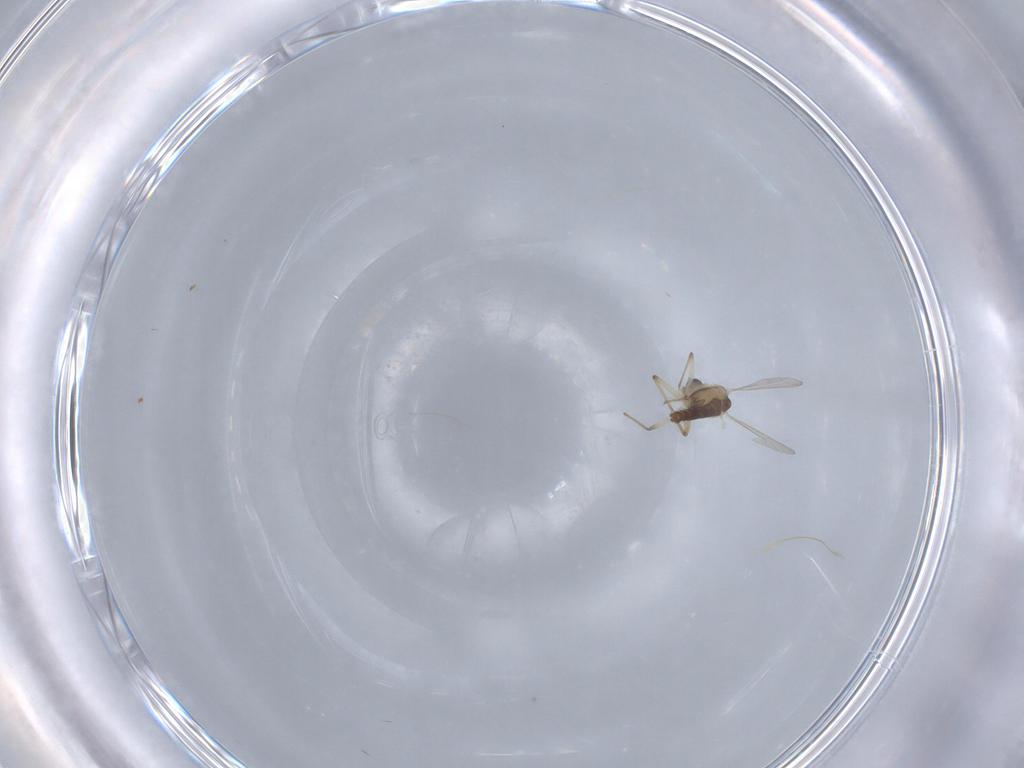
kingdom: Animalia
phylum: Arthropoda
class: Insecta
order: Diptera
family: Chironomidae
